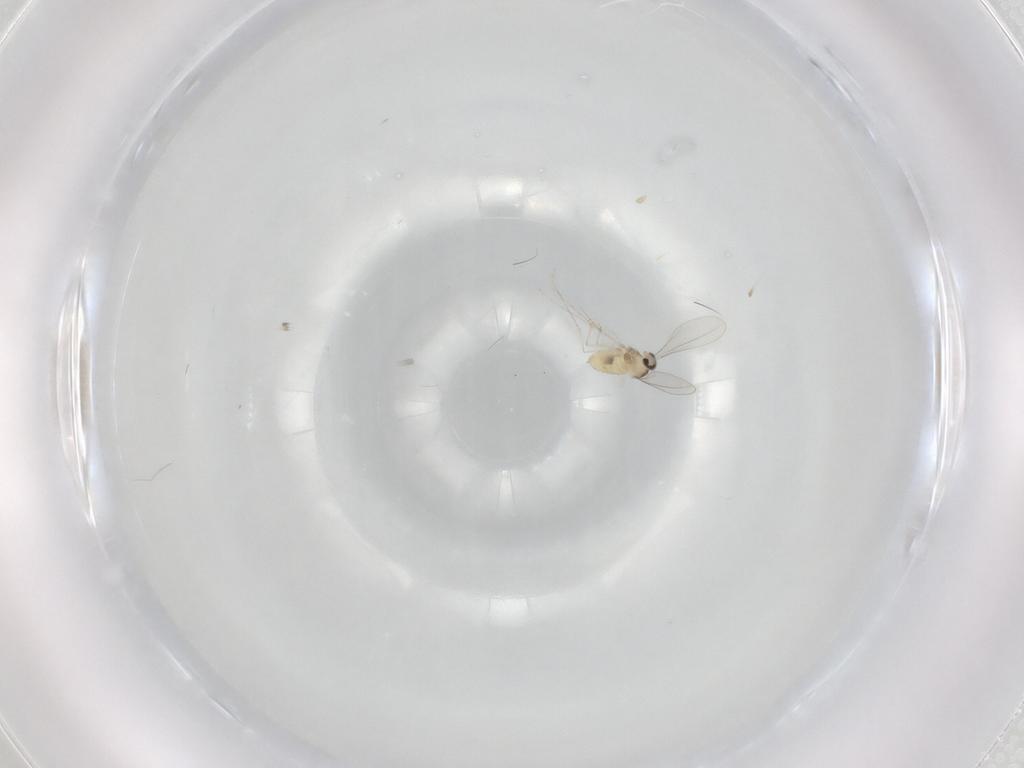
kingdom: Animalia
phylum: Arthropoda
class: Insecta
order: Diptera
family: Cecidomyiidae
